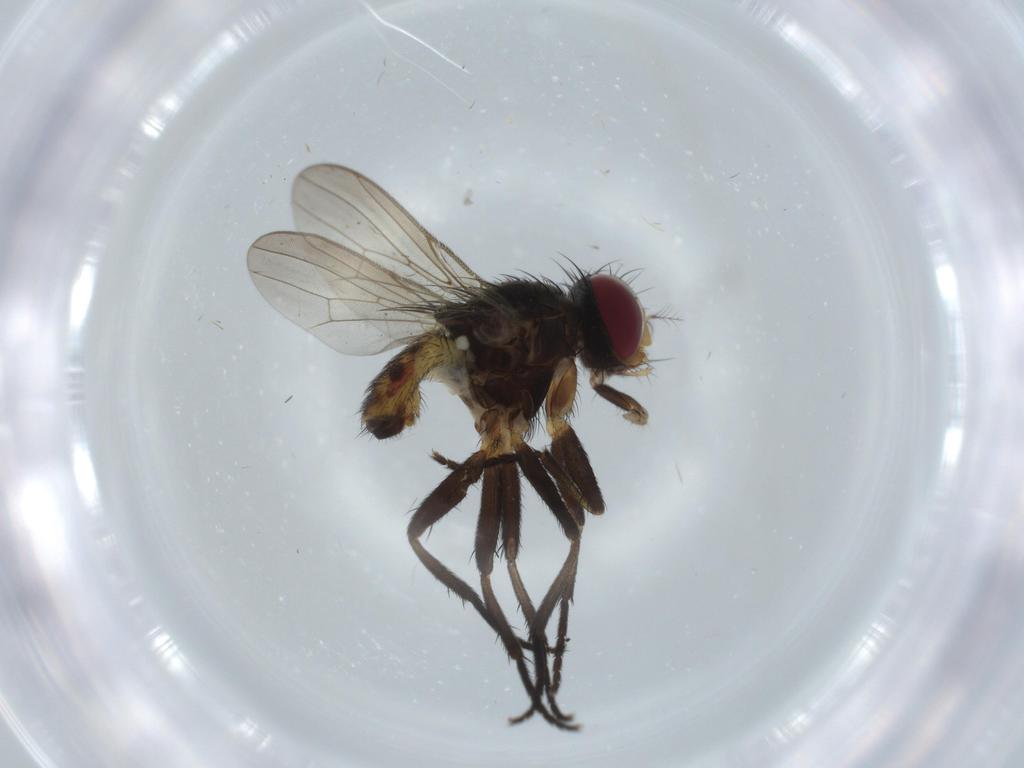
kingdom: Animalia
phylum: Arthropoda
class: Insecta
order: Diptera
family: Anthomyiidae
